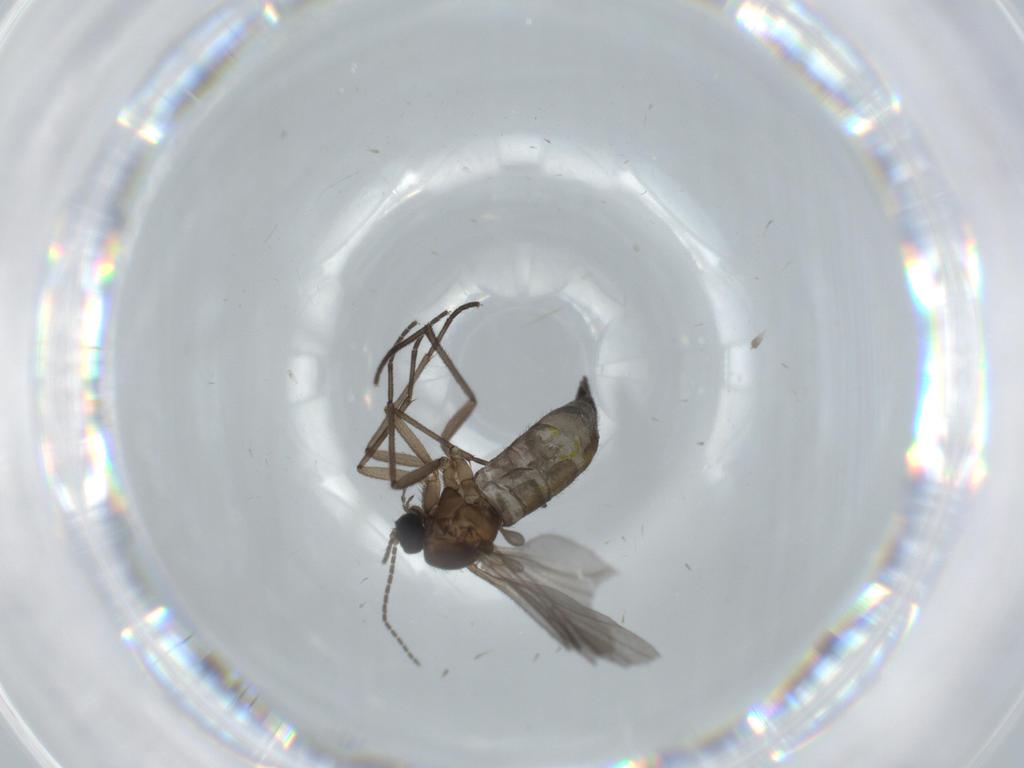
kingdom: Animalia
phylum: Arthropoda
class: Insecta
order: Diptera
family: Sciaridae
